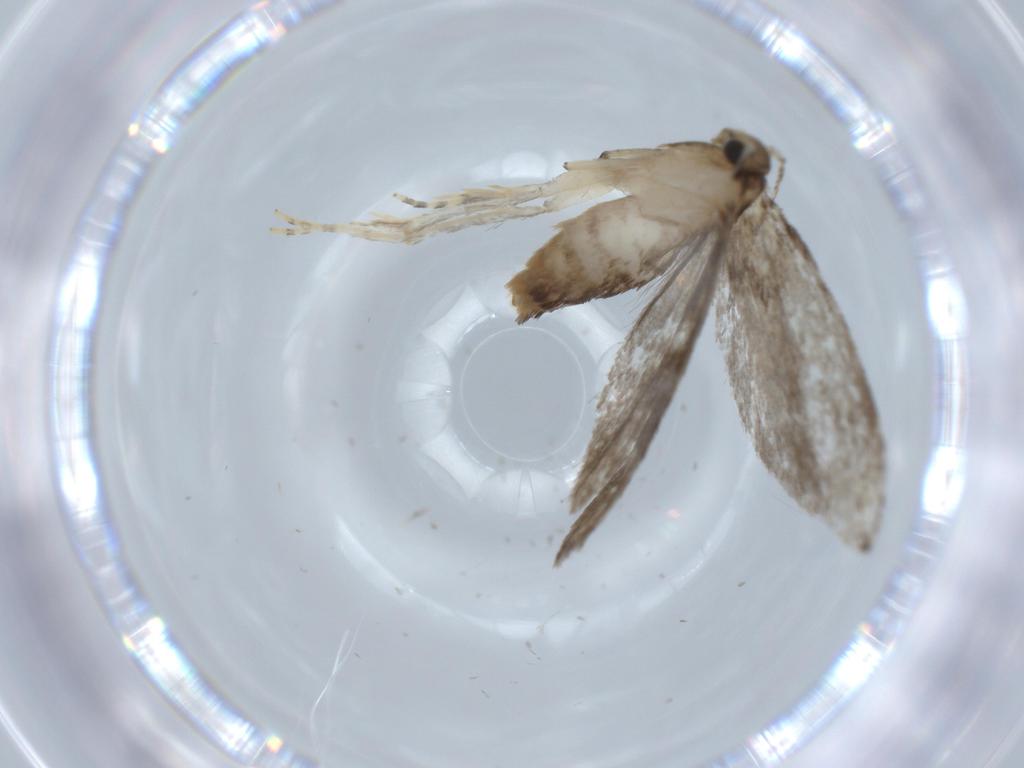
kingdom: Animalia
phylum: Arthropoda
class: Insecta
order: Lepidoptera
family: Tineidae
